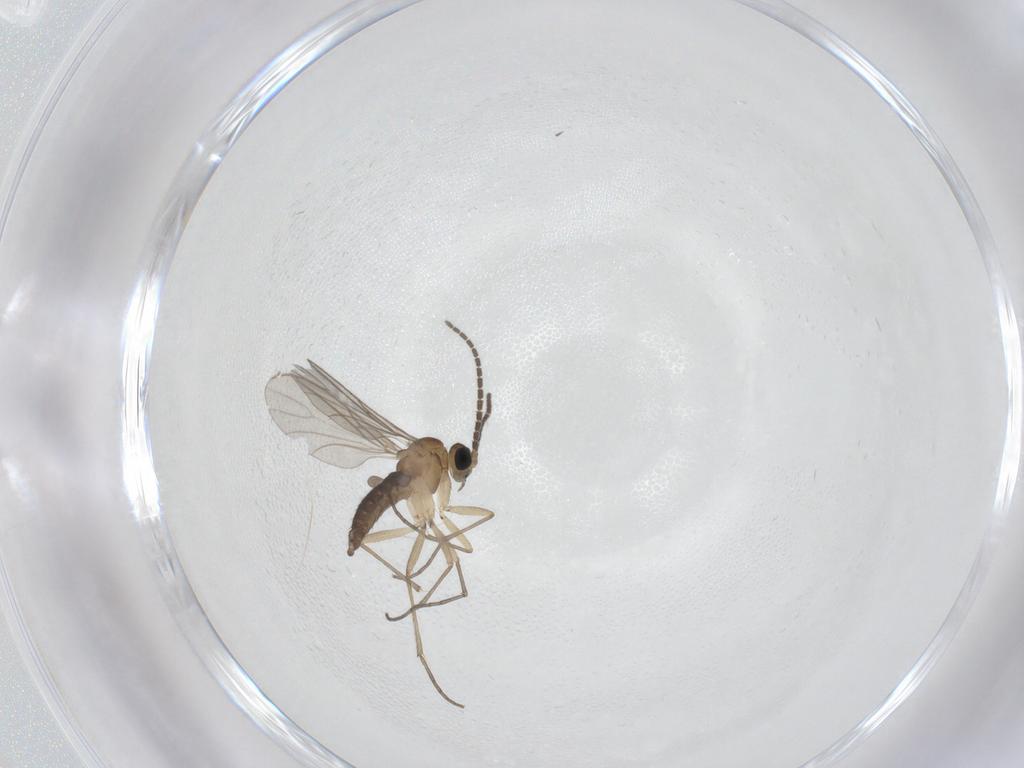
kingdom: Animalia
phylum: Arthropoda
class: Insecta
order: Diptera
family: Sciaridae
